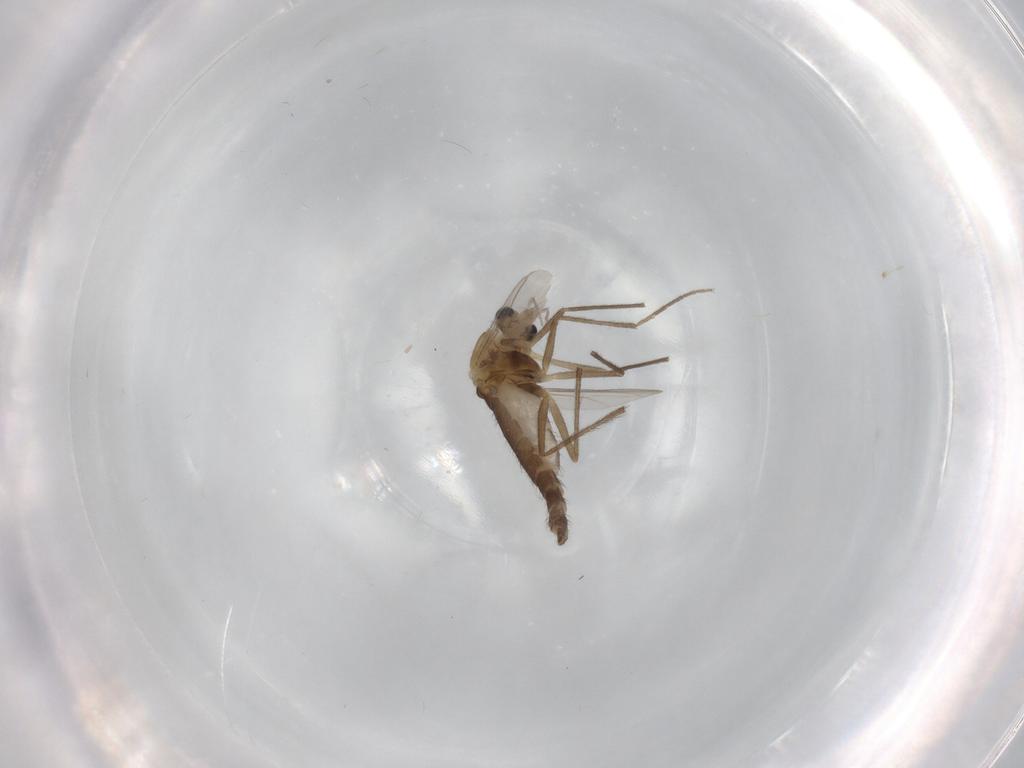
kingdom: Animalia
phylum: Arthropoda
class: Insecta
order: Diptera
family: Chironomidae
